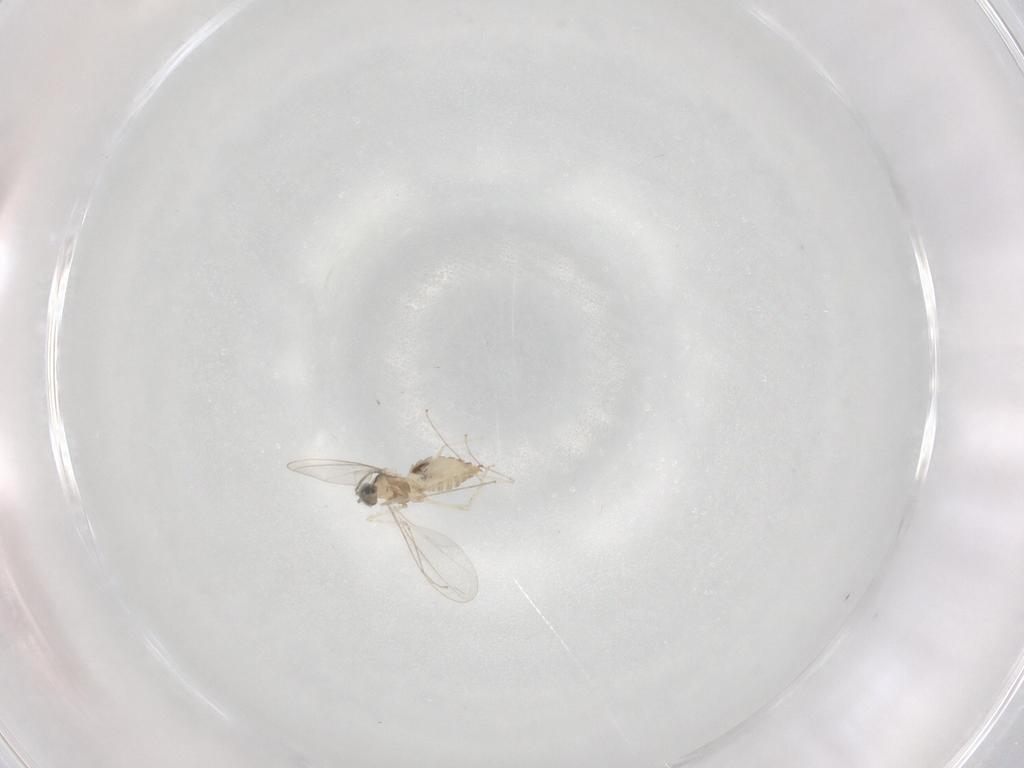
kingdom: Animalia
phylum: Arthropoda
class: Insecta
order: Diptera
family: Cecidomyiidae
